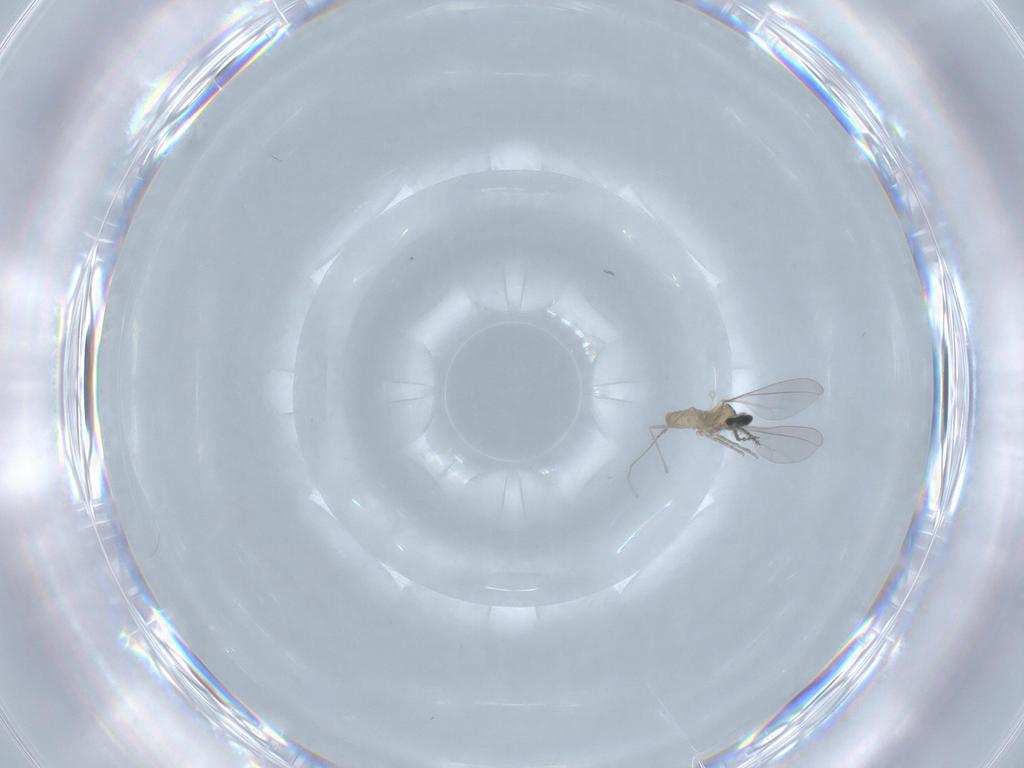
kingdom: Animalia
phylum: Arthropoda
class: Insecta
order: Diptera
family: Cecidomyiidae
